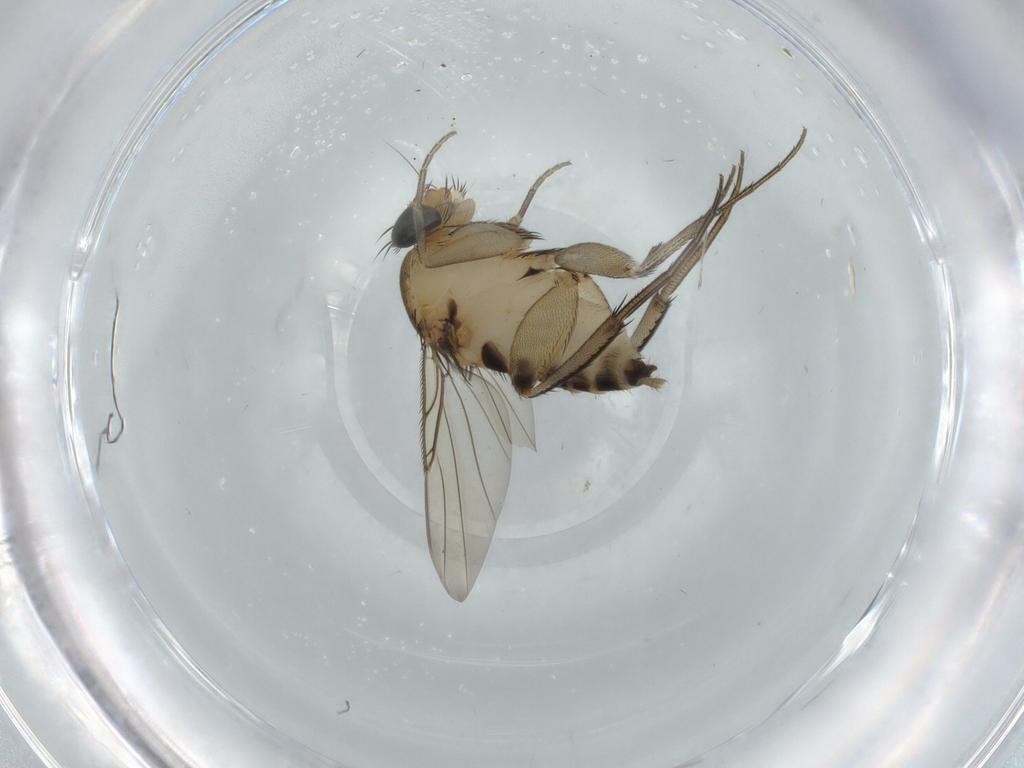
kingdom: Animalia
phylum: Arthropoda
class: Insecta
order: Diptera
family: Cecidomyiidae
